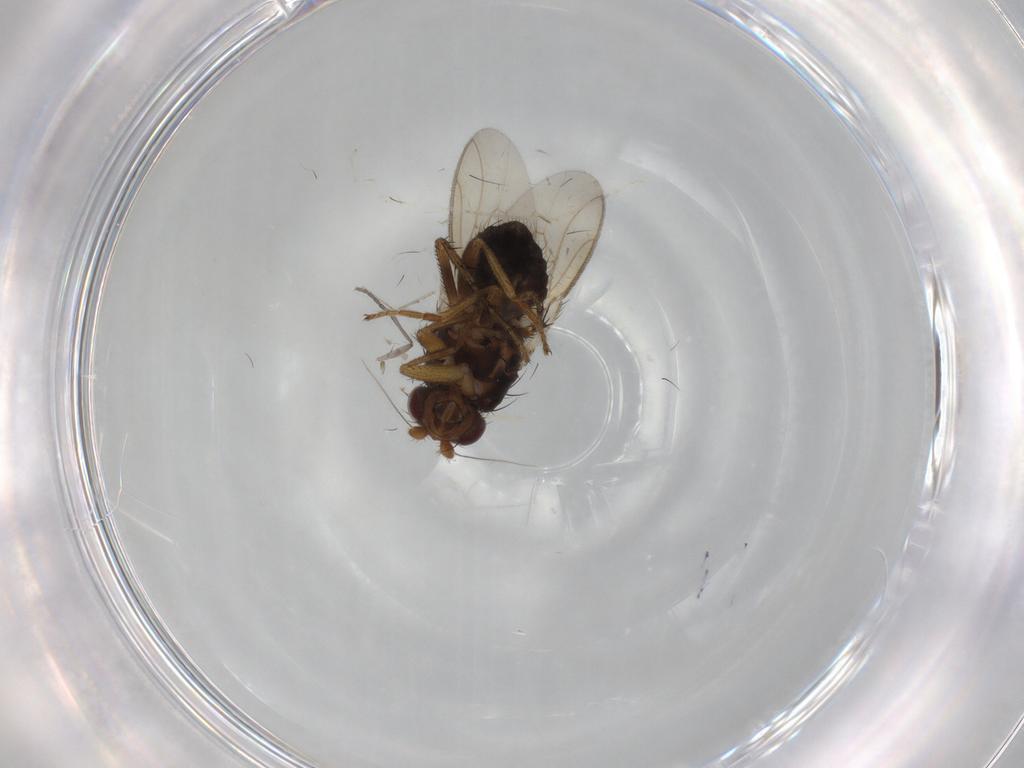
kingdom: Animalia
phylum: Arthropoda
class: Insecta
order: Diptera
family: Sphaeroceridae
